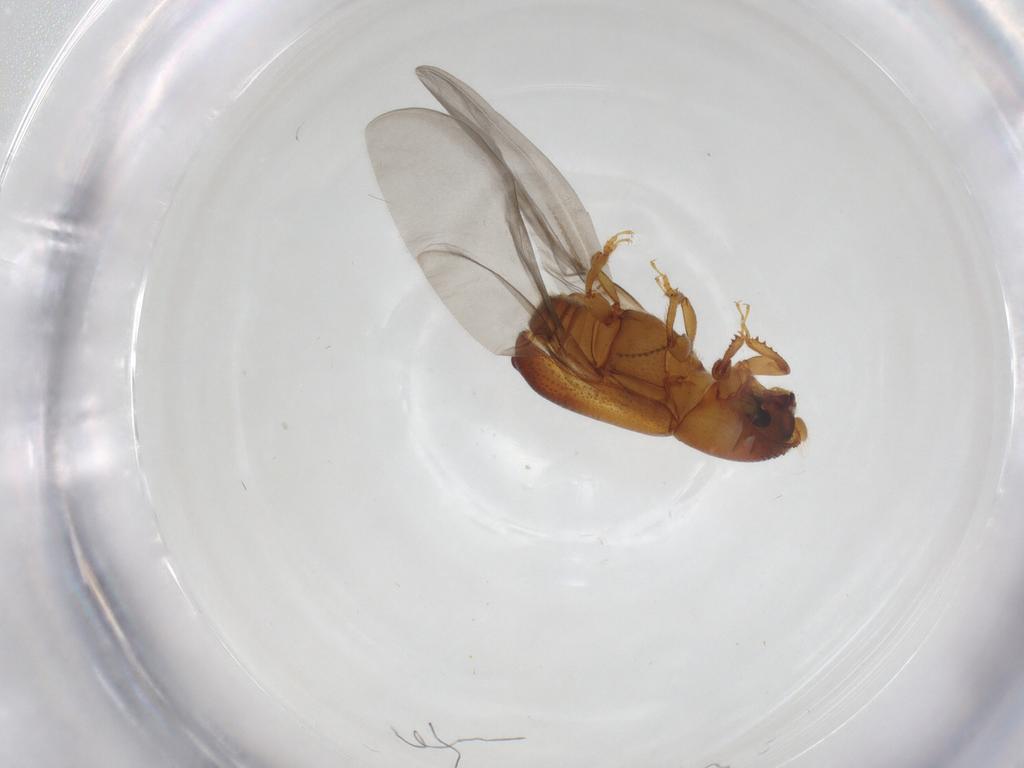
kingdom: Animalia
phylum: Arthropoda
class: Insecta
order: Coleoptera
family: Curculionidae
